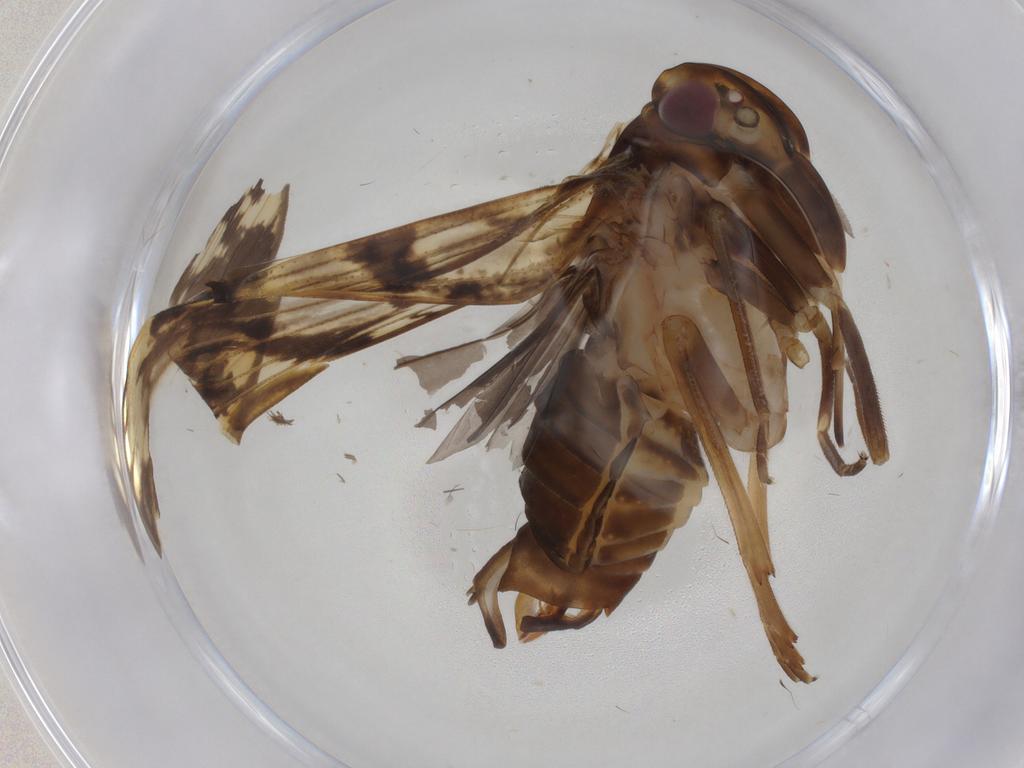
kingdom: Animalia
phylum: Arthropoda
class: Insecta
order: Hemiptera
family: Cixiidae
